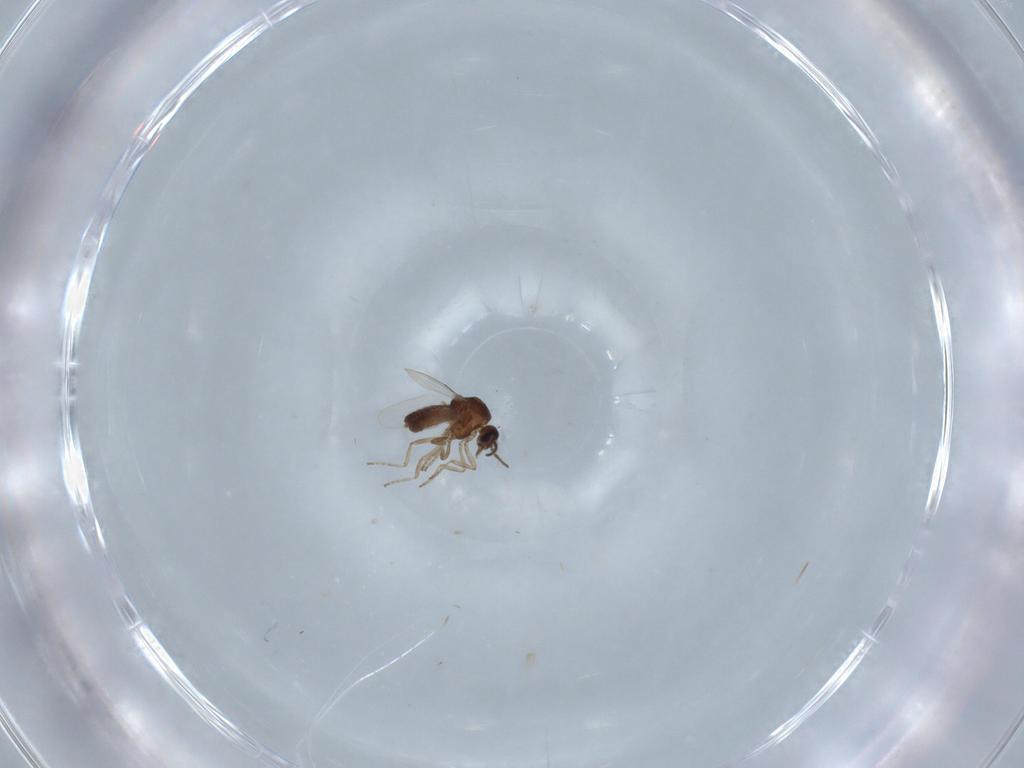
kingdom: Animalia
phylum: Arthropoda
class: Insecta
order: Diptera
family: Ceratopogonidae
